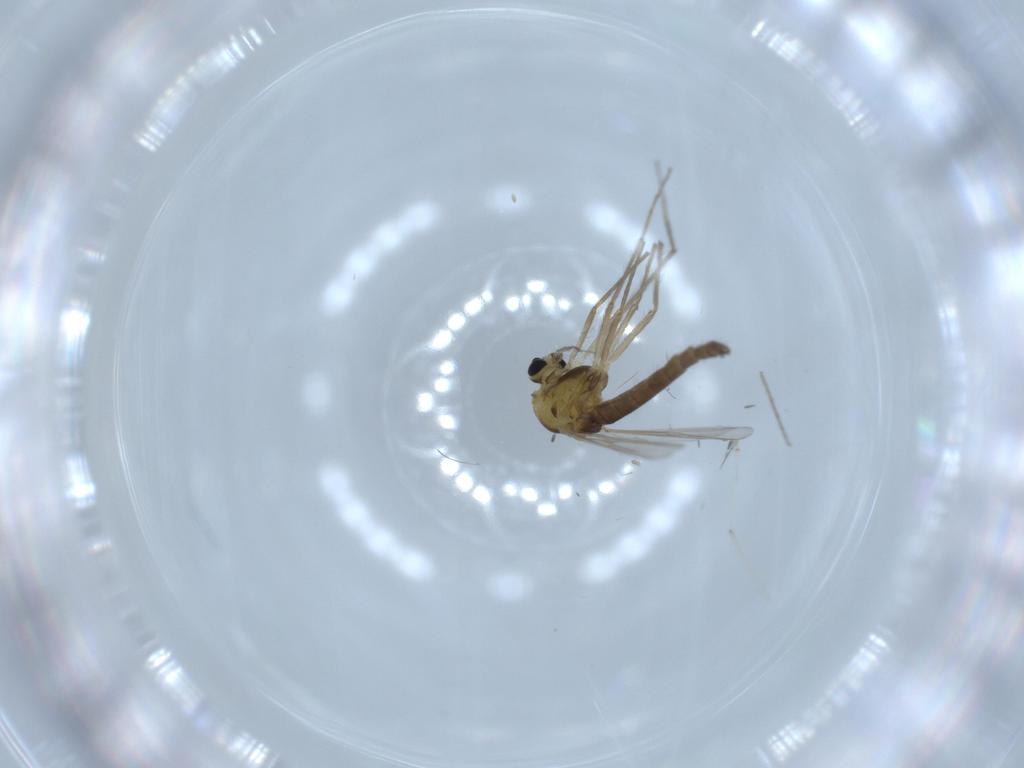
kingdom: Animalia
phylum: Arthropoda
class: Insecta
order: Diptera
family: Chironomidae
